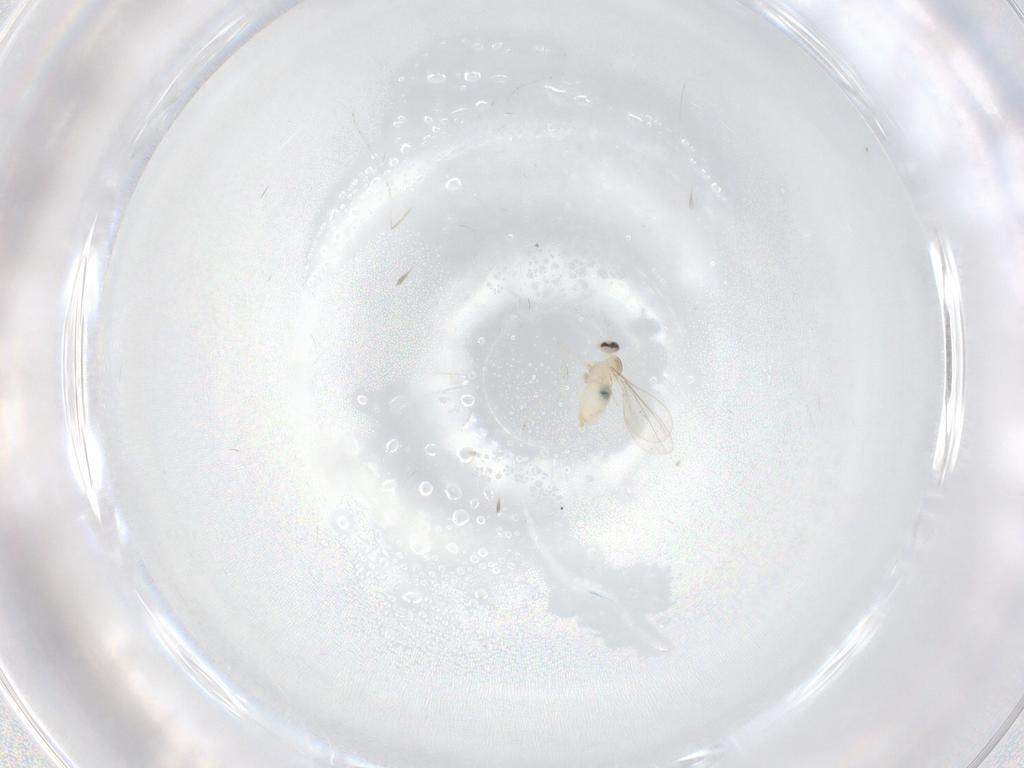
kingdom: Animalia
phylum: Arthropoda
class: Insecta
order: Diptera
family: Cecidomyiidae
